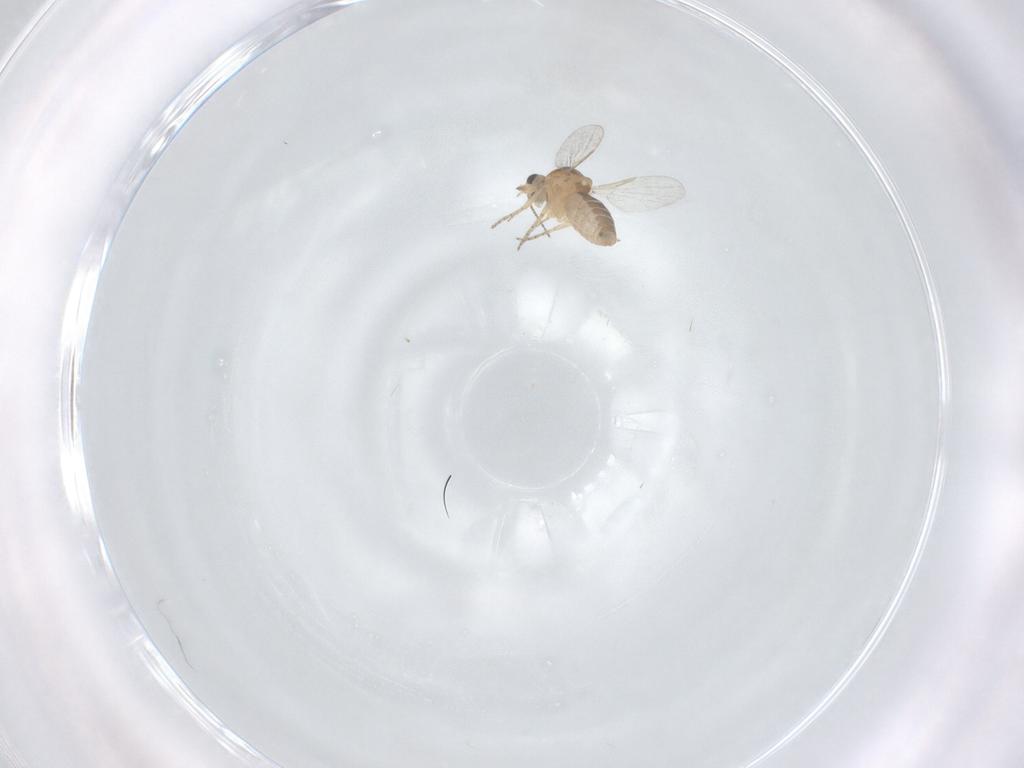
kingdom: Animalia
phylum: Arthropoda
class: Insecta
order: Diptera
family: Ceratopogonidae
